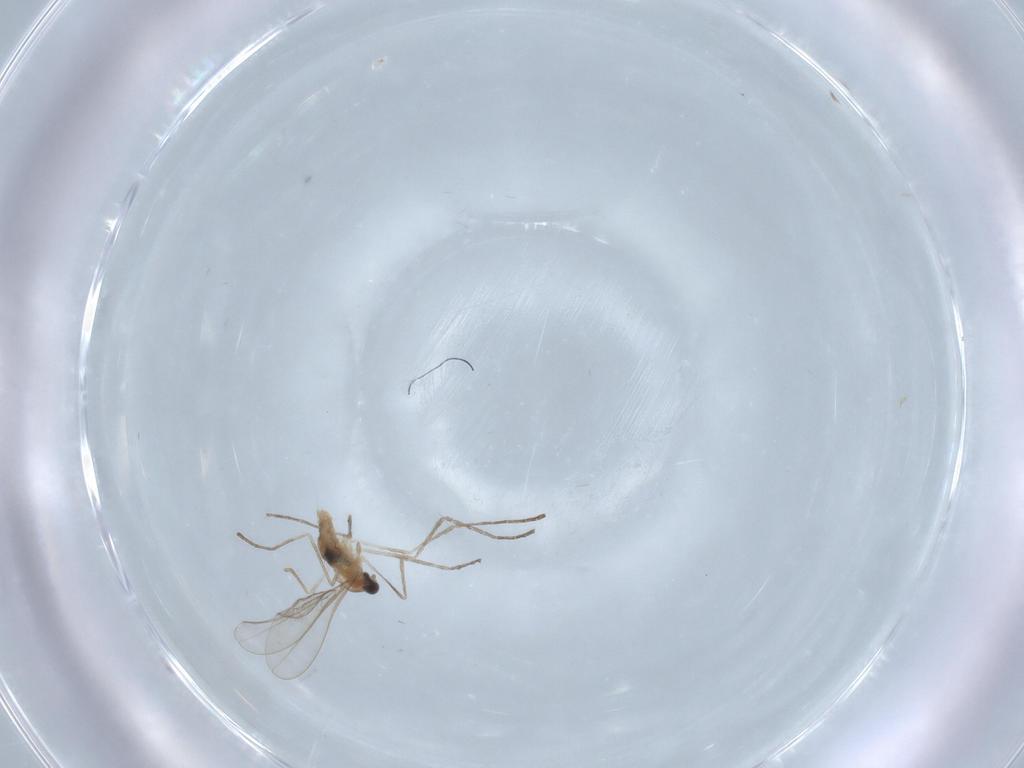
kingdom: Animalia
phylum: Arthropoda
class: Insecta
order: Diptera
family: Cecidomyiidae
